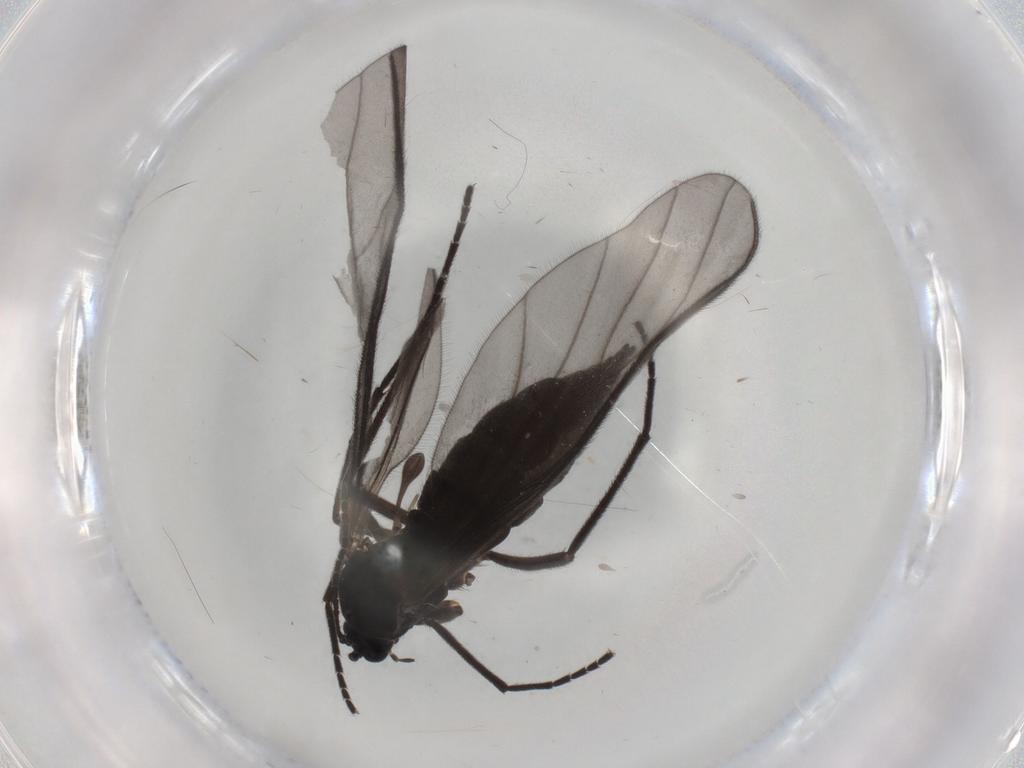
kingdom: Animalia
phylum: Arthropoda
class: Insecta
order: Diptera
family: Sciaridae
